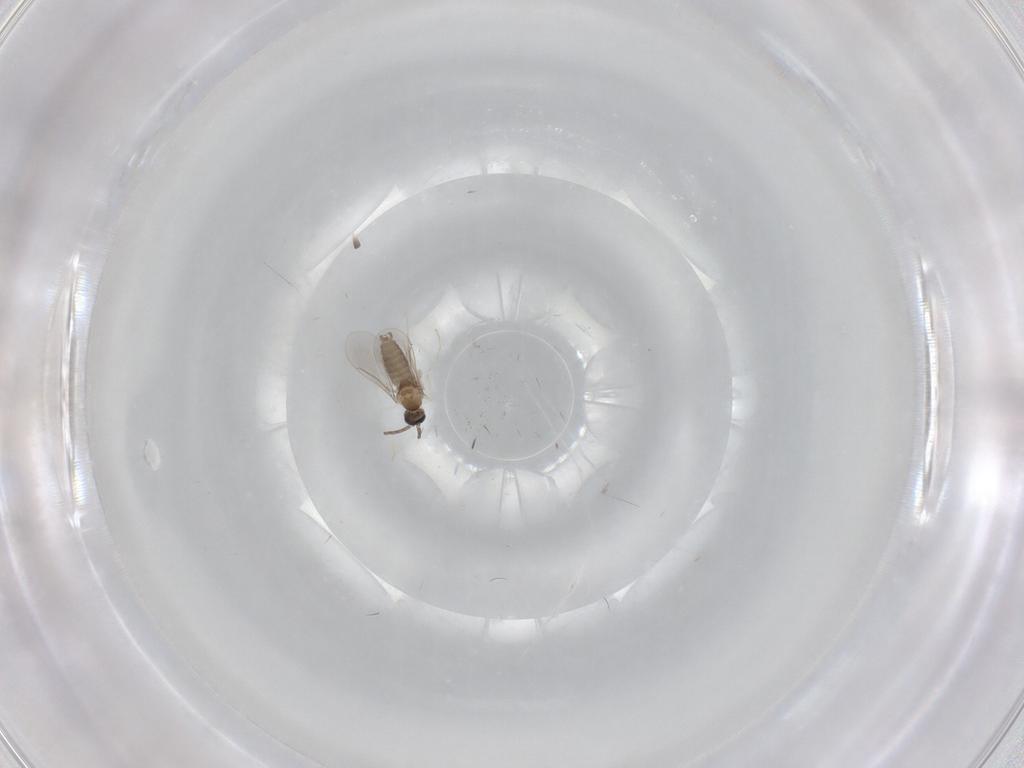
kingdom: Animalia
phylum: Arthropoda
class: Insecta
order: Diptera
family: Cecidomyiidae
